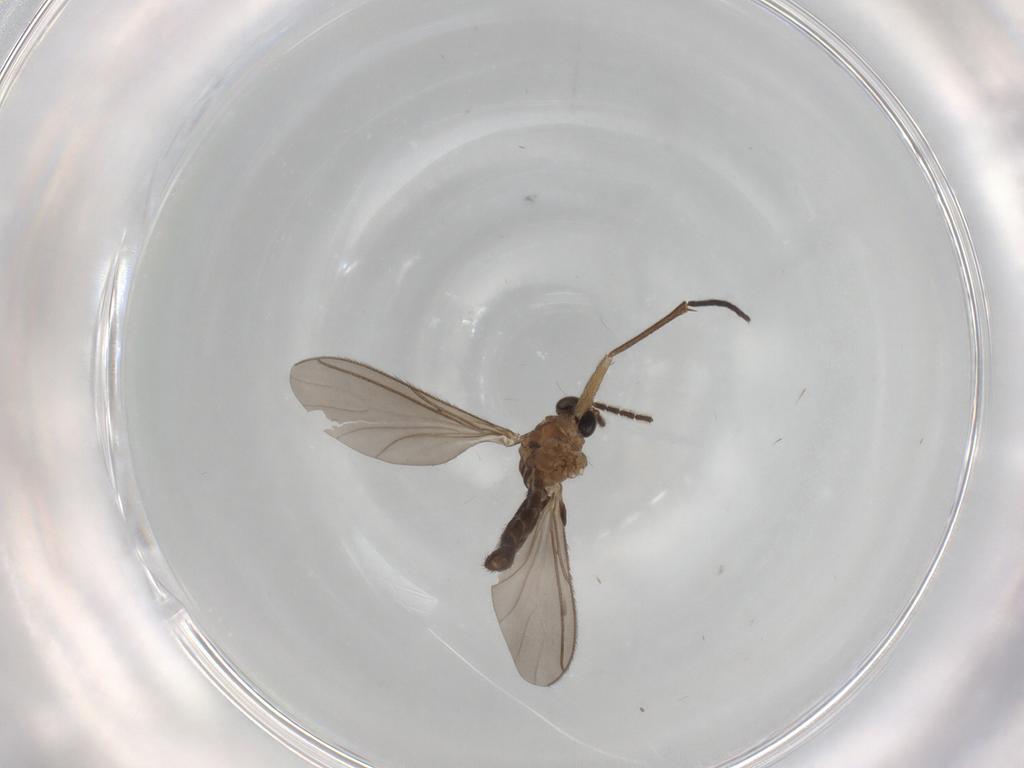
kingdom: Animalia
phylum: Arthropoda
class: Insecta
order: Diptera
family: Sciaridae
